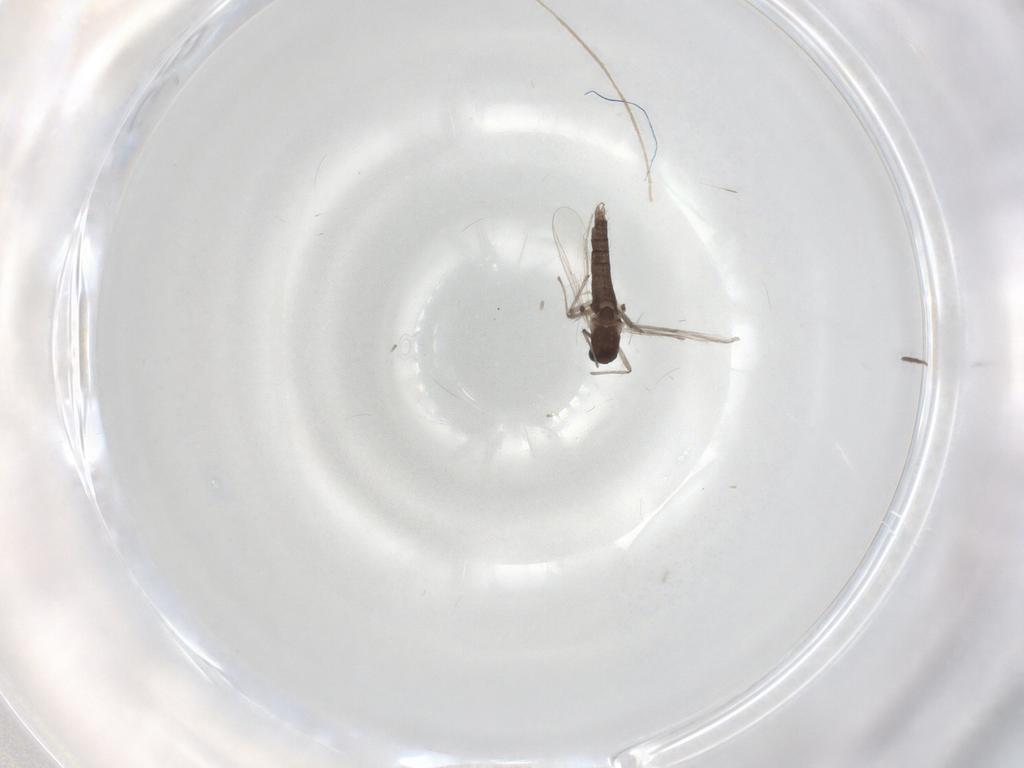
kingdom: Animalia
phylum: Arthropoda
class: Insecta
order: Diptera
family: Chironomidae
